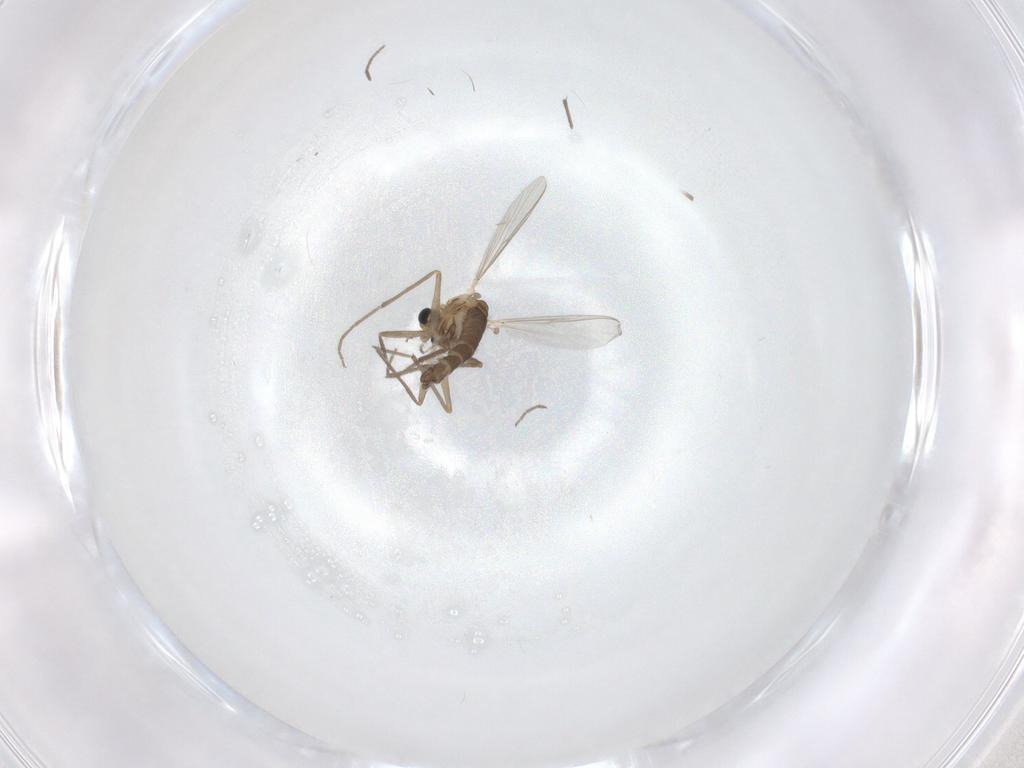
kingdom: Animalia
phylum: Arthropoda
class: Insecta
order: Diptera
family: Chironomidae
